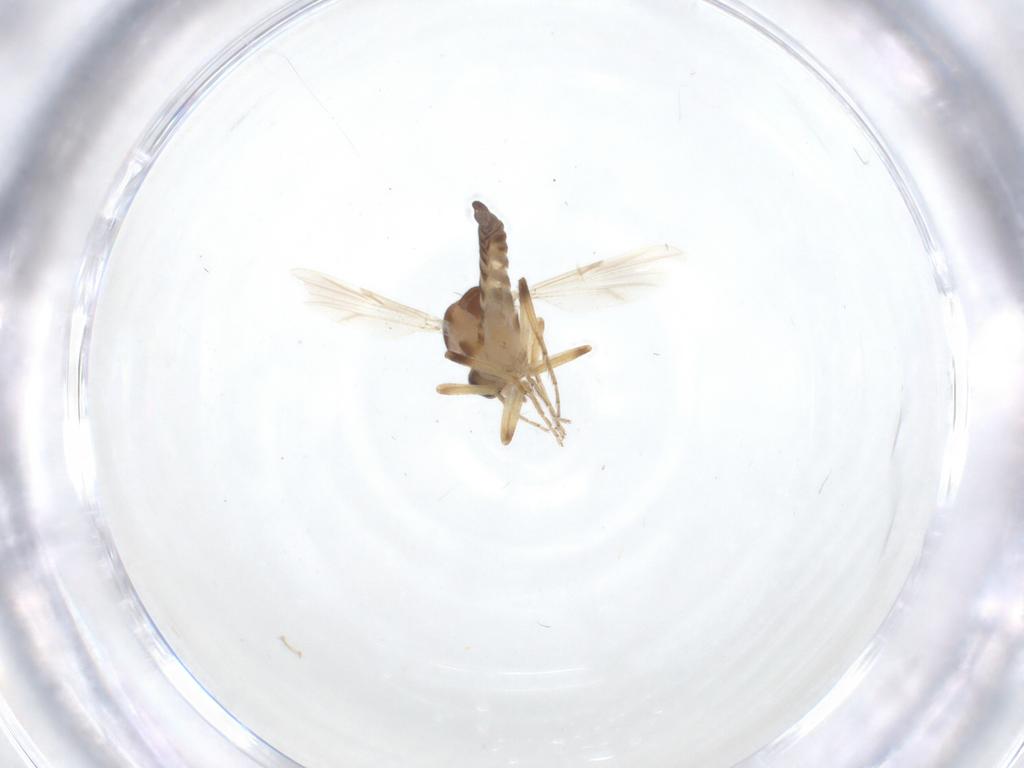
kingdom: Animalia
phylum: Arthropoda
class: Insecta
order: Diptera
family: Ceratopogonidae
